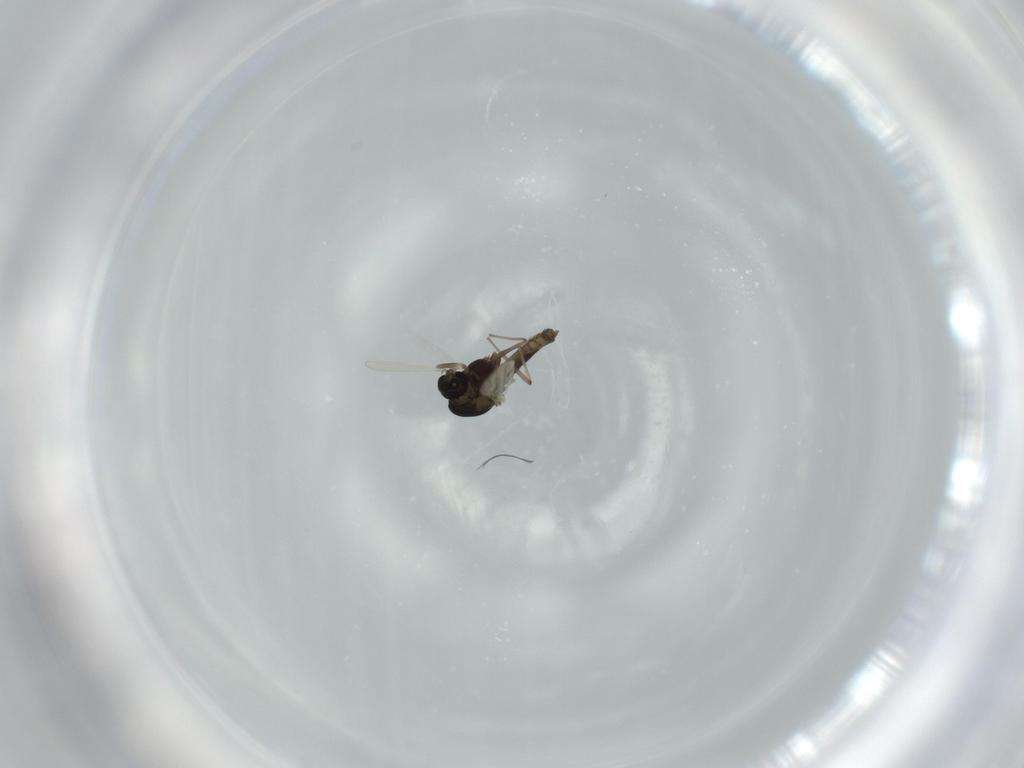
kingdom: Animalia
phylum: Arthropoda
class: Insecta
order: Diptera
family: Chironomidae
